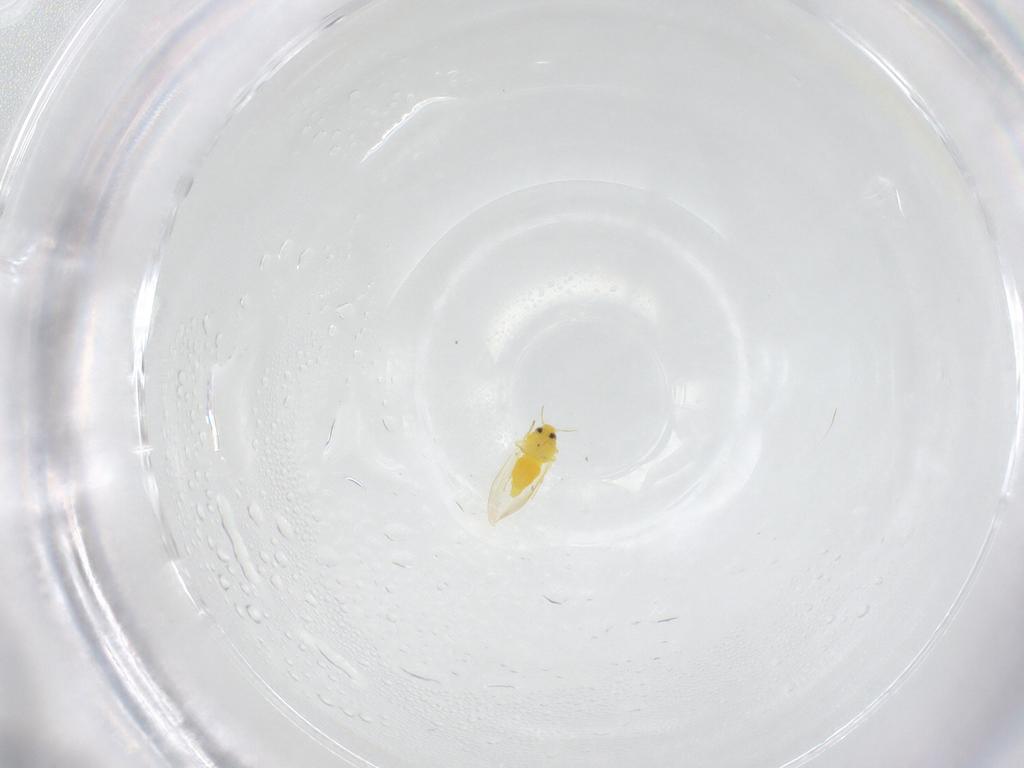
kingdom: Animalia
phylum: Arthropoda
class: Insecta
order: Hemiptera
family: Aleyrodidae
